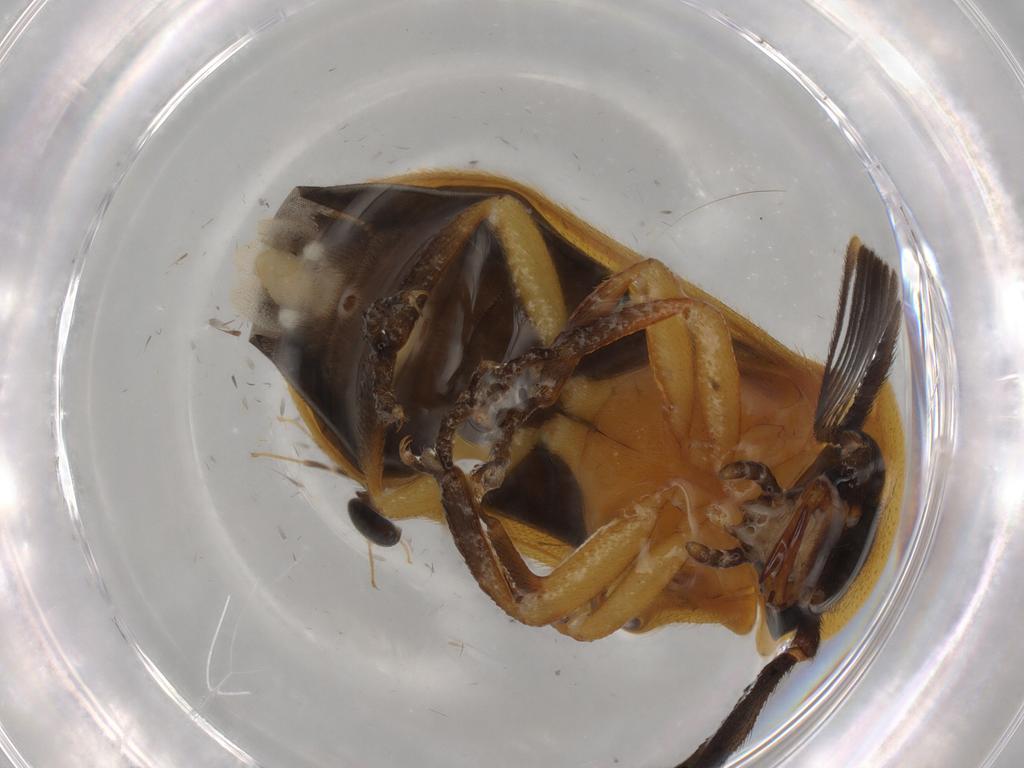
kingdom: Animalia
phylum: Arthropoda
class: Insecta
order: Coleoptera
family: Lampyridae
